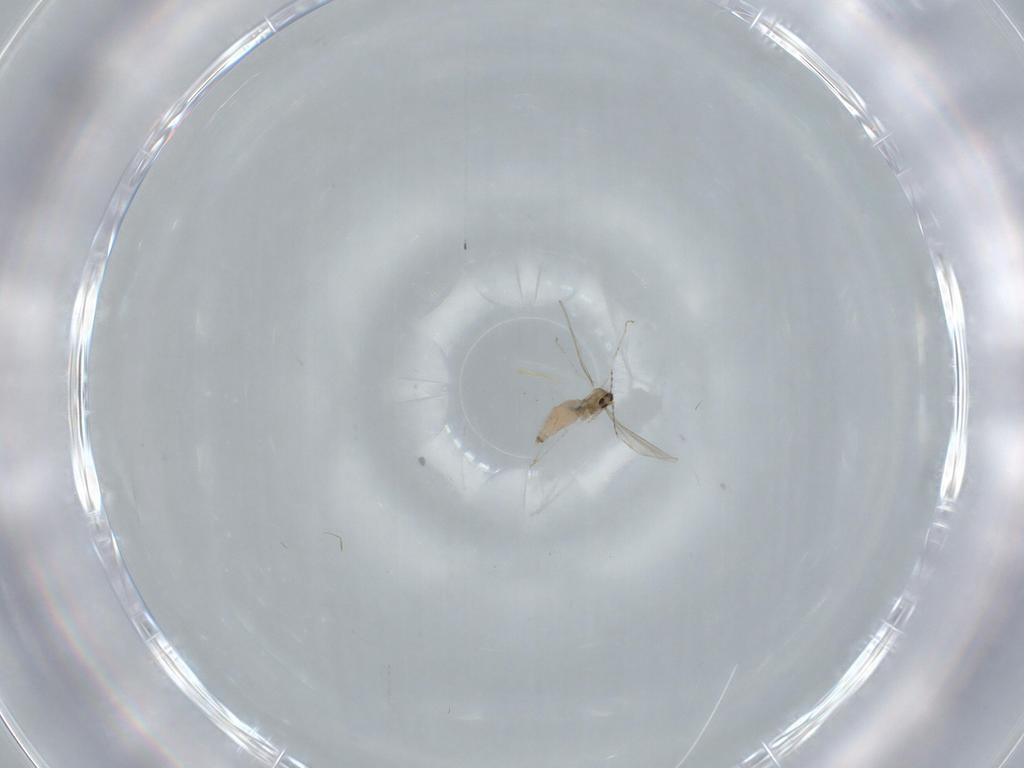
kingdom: Animalia
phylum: Arthropoda
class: Insecta
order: Diptera
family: Cecidomyiidae
